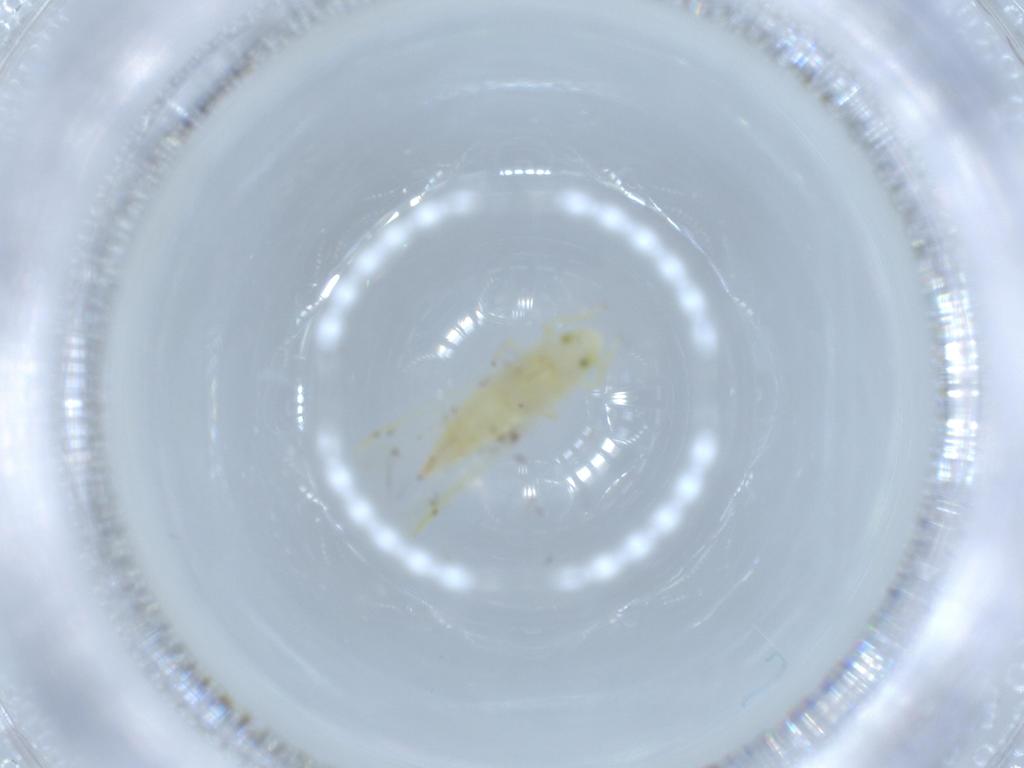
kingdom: Animalia
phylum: Arthropoda
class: Insecta
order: Hemiptera
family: Cicadellidae
